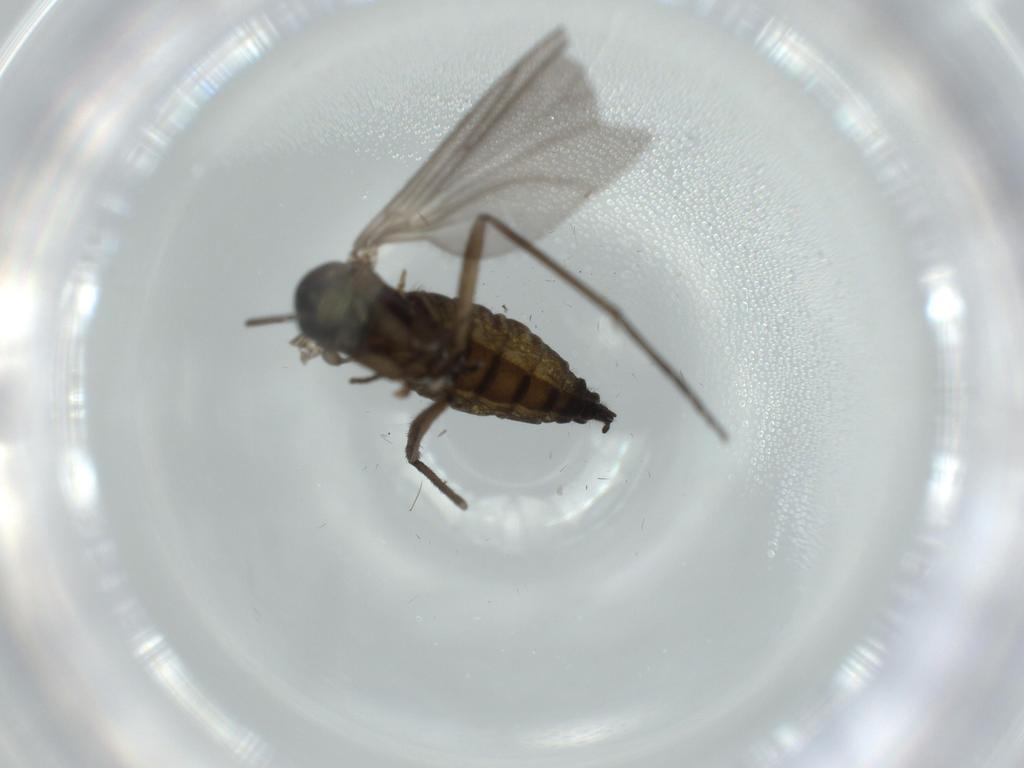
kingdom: Animalia
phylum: Arthropoda
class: Insecta
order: Diptera
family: Sciaridae
